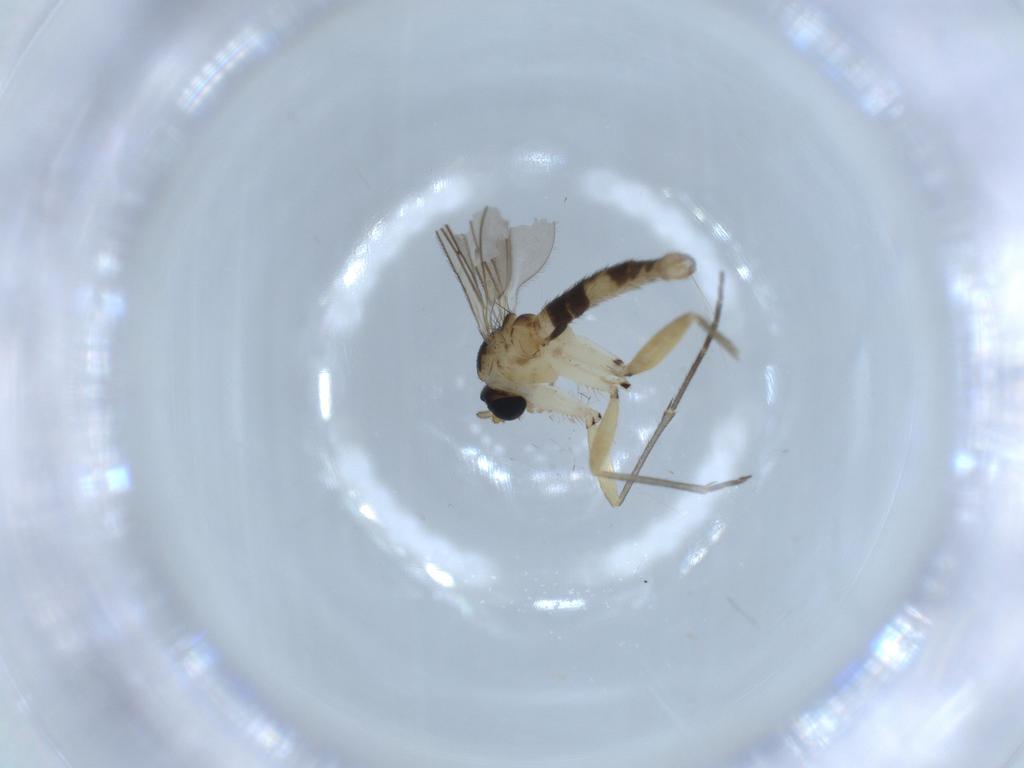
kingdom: Animalia
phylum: Arthropoda
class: Insecta
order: Diptera
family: Sciaridae
